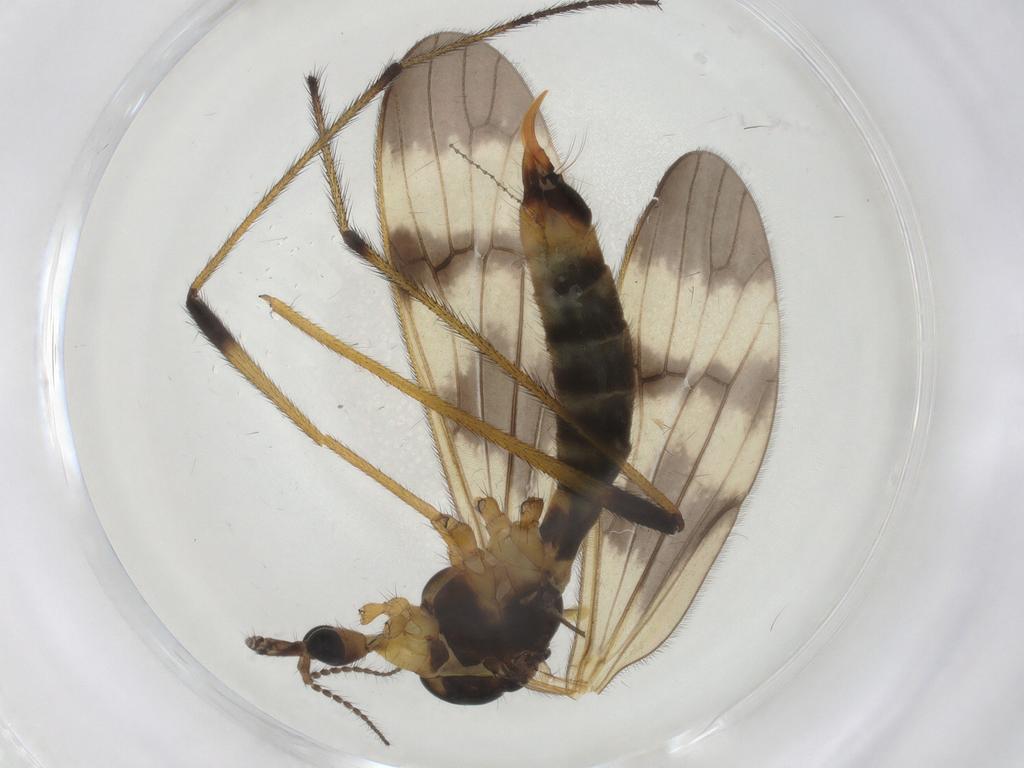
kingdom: Animalia
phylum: Arthropoda
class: Insecta
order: Diptera
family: Limoniidae
